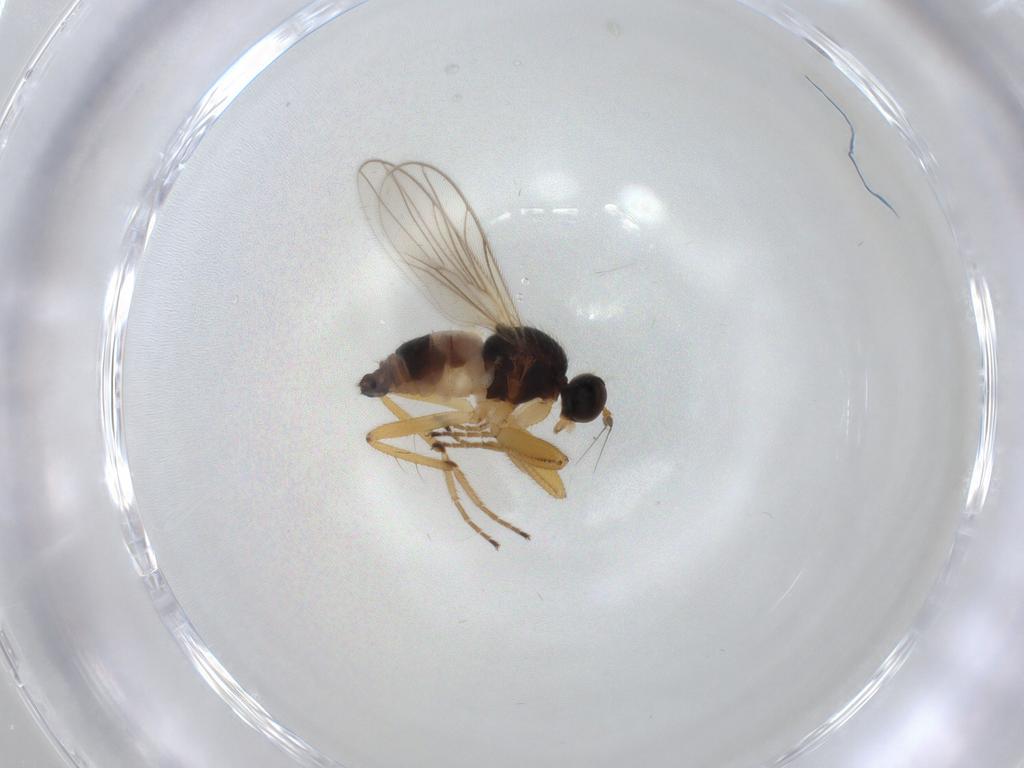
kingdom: Animalia
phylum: Arthropoda
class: Insecta
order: Diptera
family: Hybotidae
